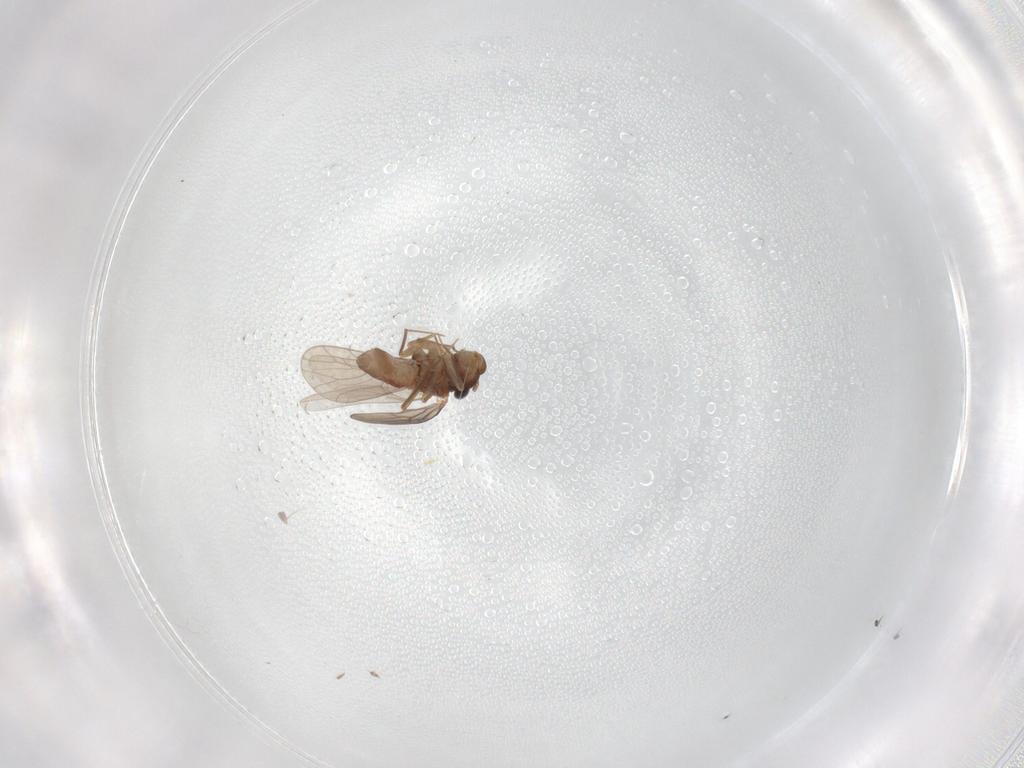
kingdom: Animalia
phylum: Arthropoda
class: Insecta
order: Psocodea
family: Lepidopsocidae
